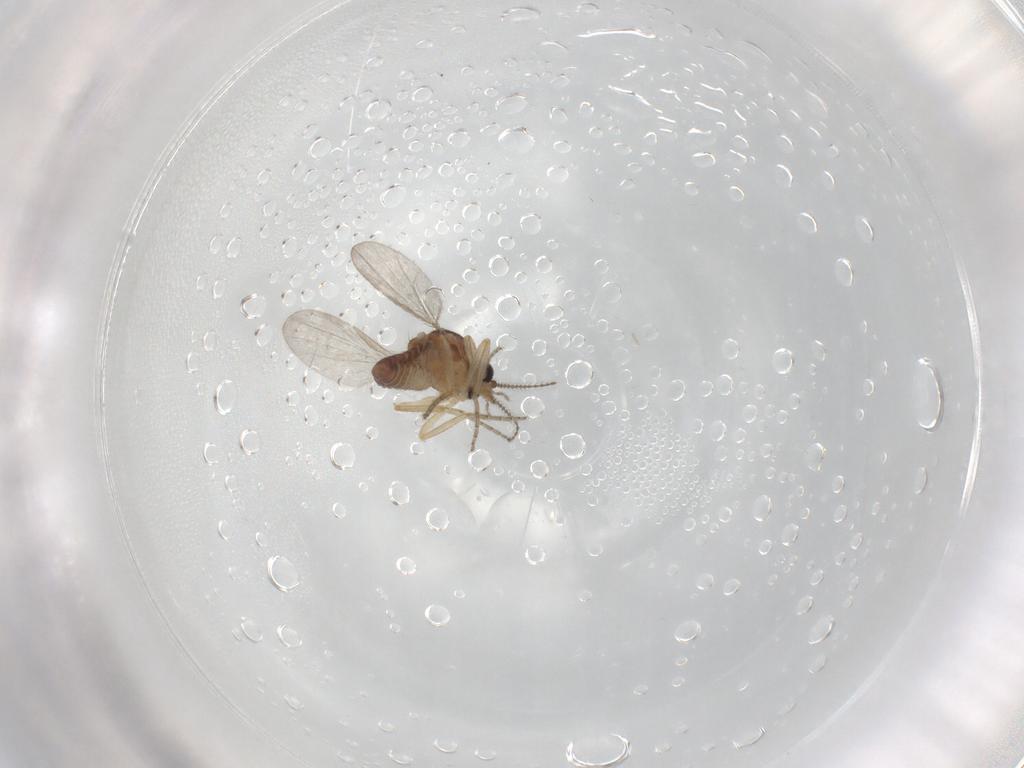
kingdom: Animalia
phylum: Arthropoda
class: Insecta
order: Diptera
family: Ceratopogonidae
